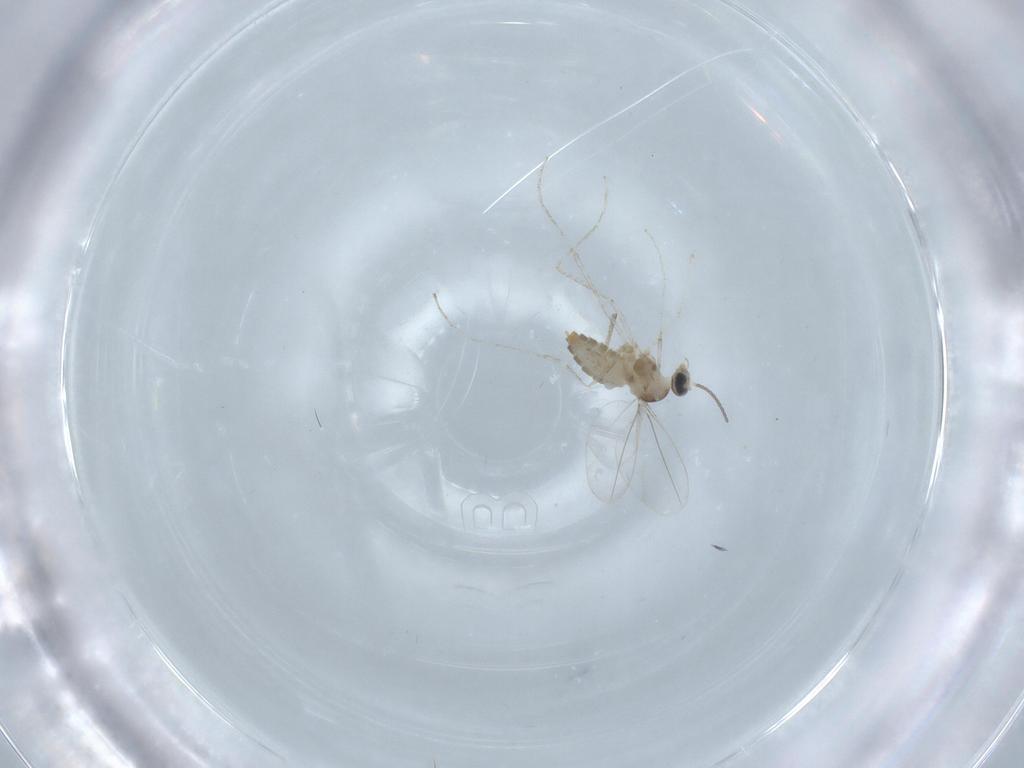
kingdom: Animalia
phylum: Arthropoda
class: Insecta
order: Diptera
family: Cecidomyiidae
